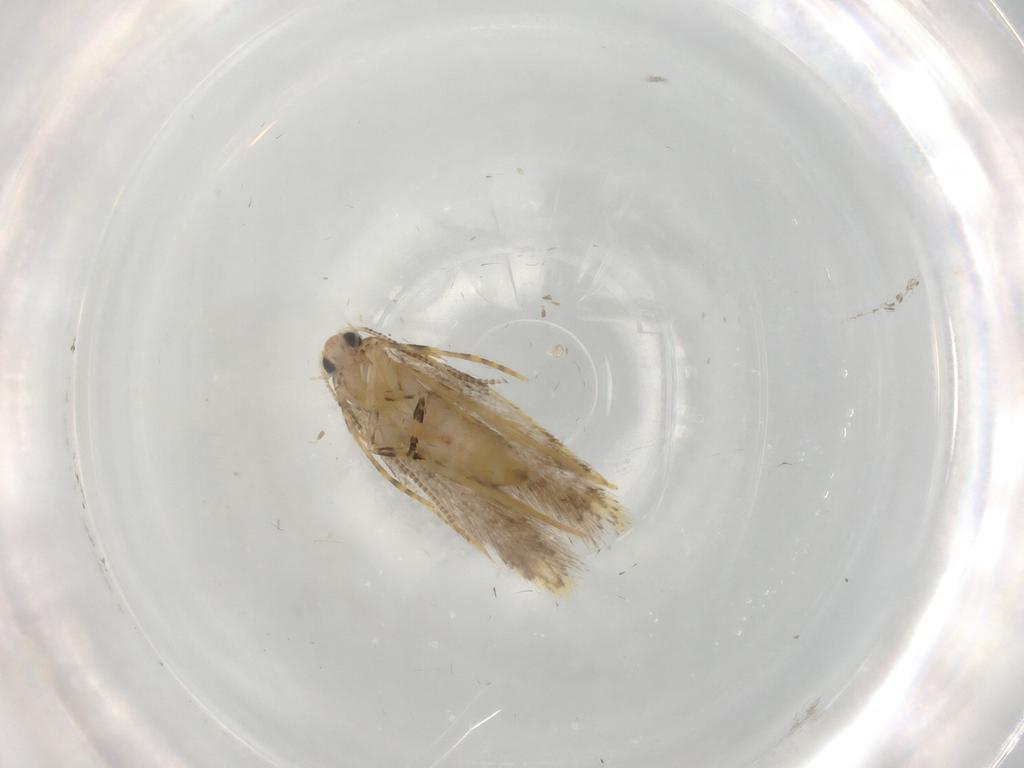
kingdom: Animalia
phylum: Arthropoda
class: Insecta
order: Lepidoptera
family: Tineidae
